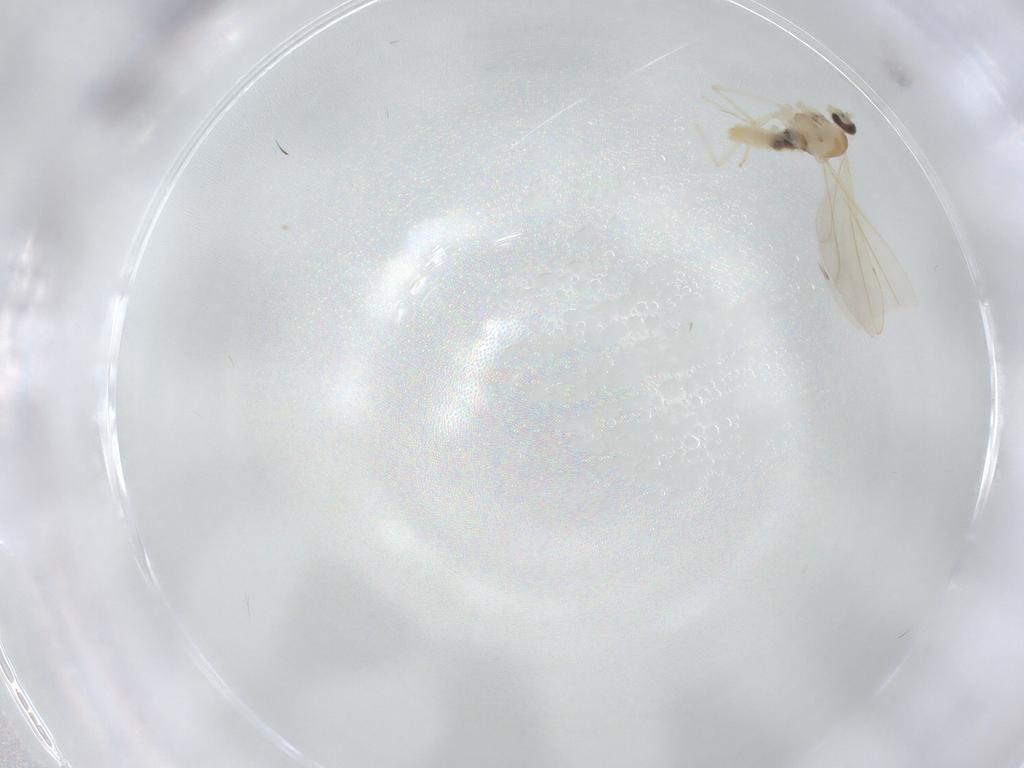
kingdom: Animalia
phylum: Arthropoda
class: Insecta
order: Diptera
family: Cecidomyiidae
